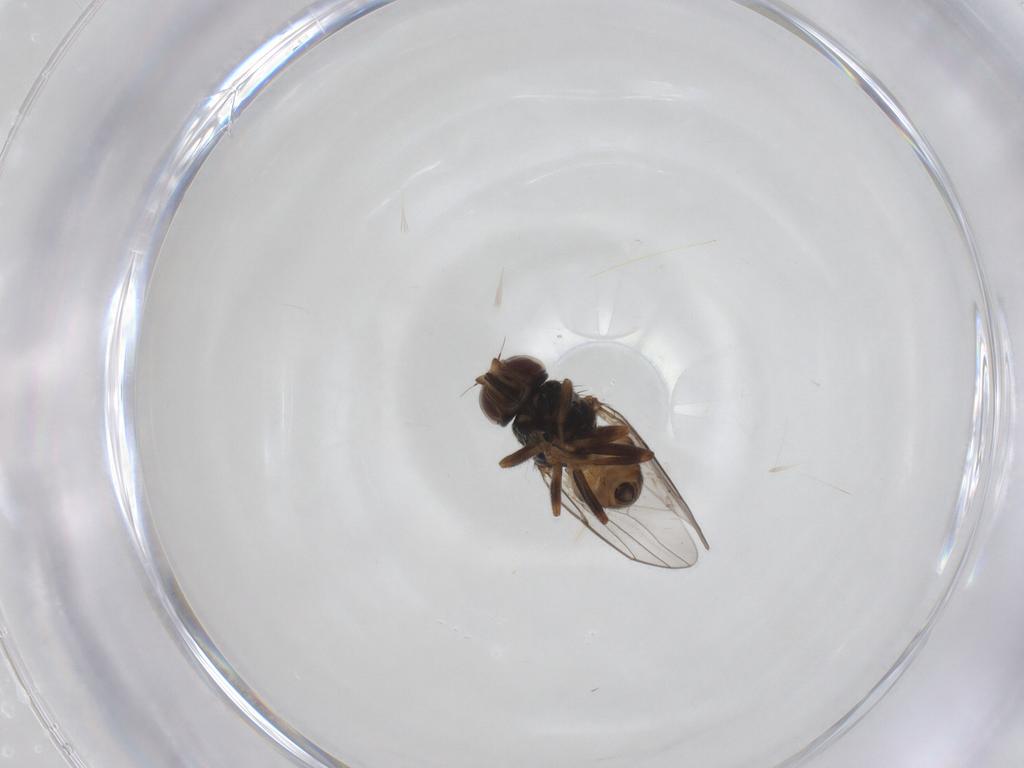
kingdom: Animalia
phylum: Arthropoda
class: Insecta
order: Diptera
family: Chloropidae
